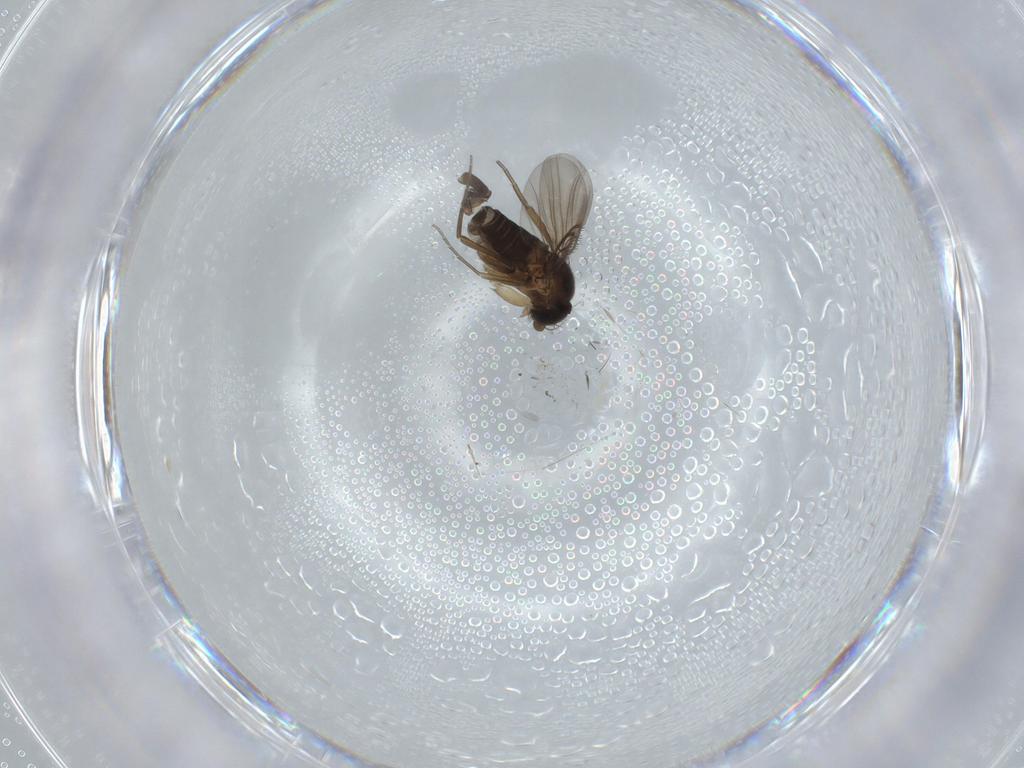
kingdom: Animalia
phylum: Arthropoda
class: Insecta
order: Diptera
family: Phoridae
